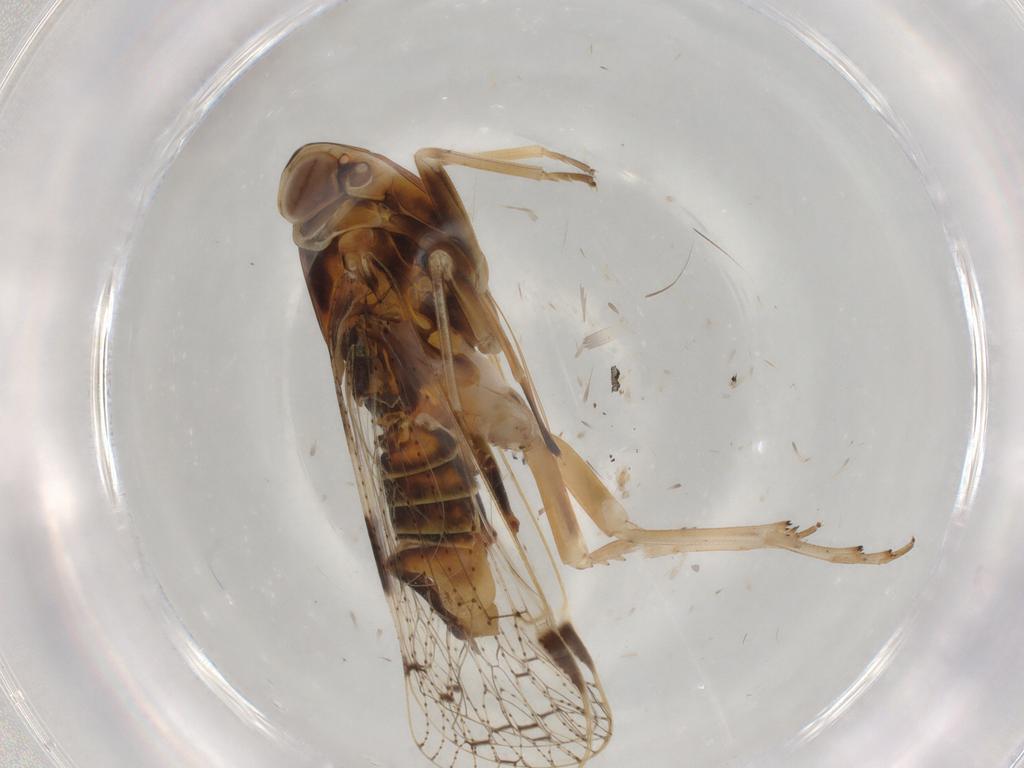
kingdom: Animalia
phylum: Arthropoda
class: Insecta
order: Hemiptera
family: Cixiidae
